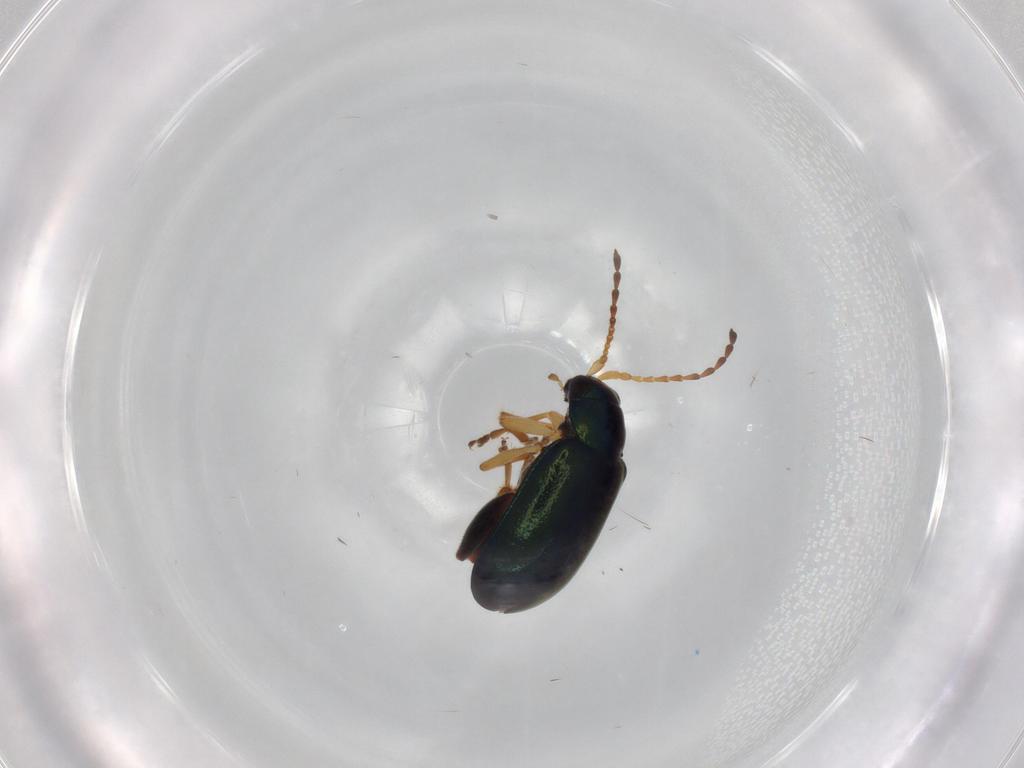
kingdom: Animalia
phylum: Arthropoda
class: Insecta
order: Coleoptera
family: Chrysomelidae
